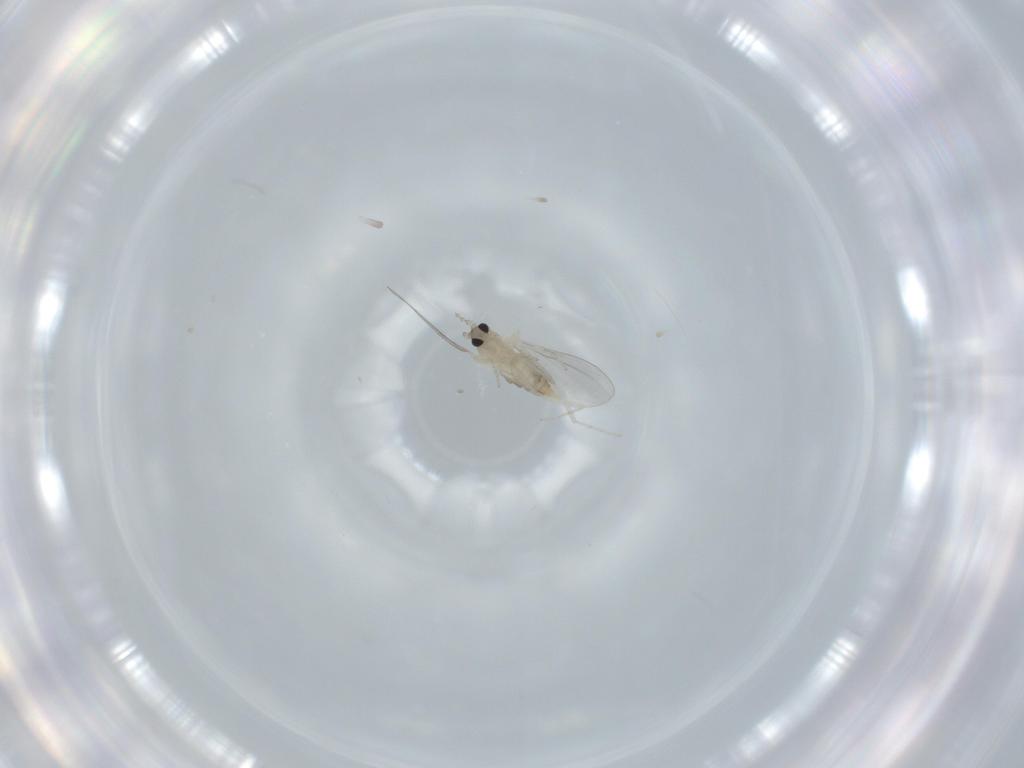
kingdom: Animalia
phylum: Arthropoda
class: Insecta
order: Diptera
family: Cecidomyiidae
